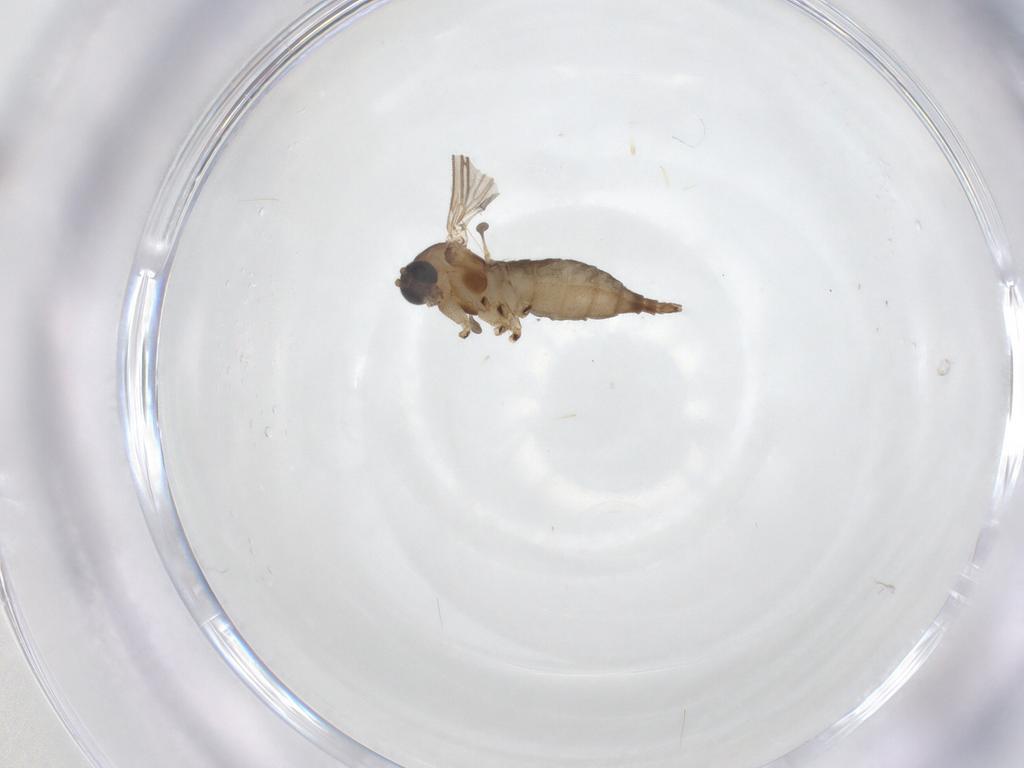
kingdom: Animalia
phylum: Arthropoda
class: Insecta
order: Diptera
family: Sciaridae
